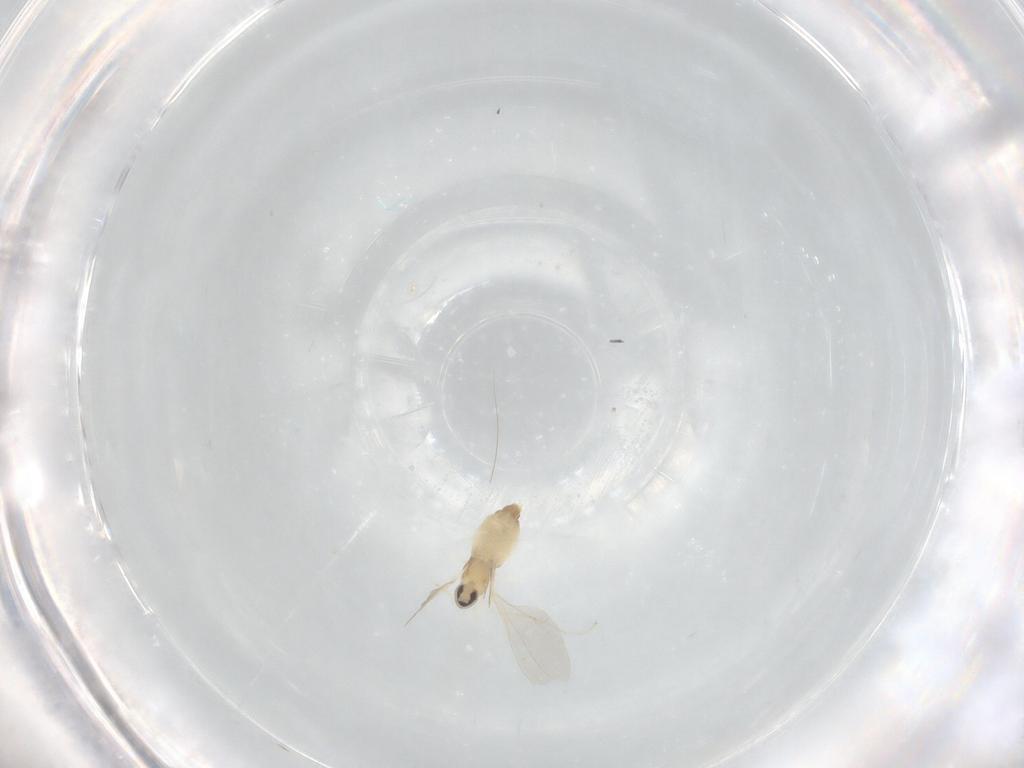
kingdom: Animalia
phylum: Arthropoda
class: Insecta
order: Diptera
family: Cecidomyiidae
